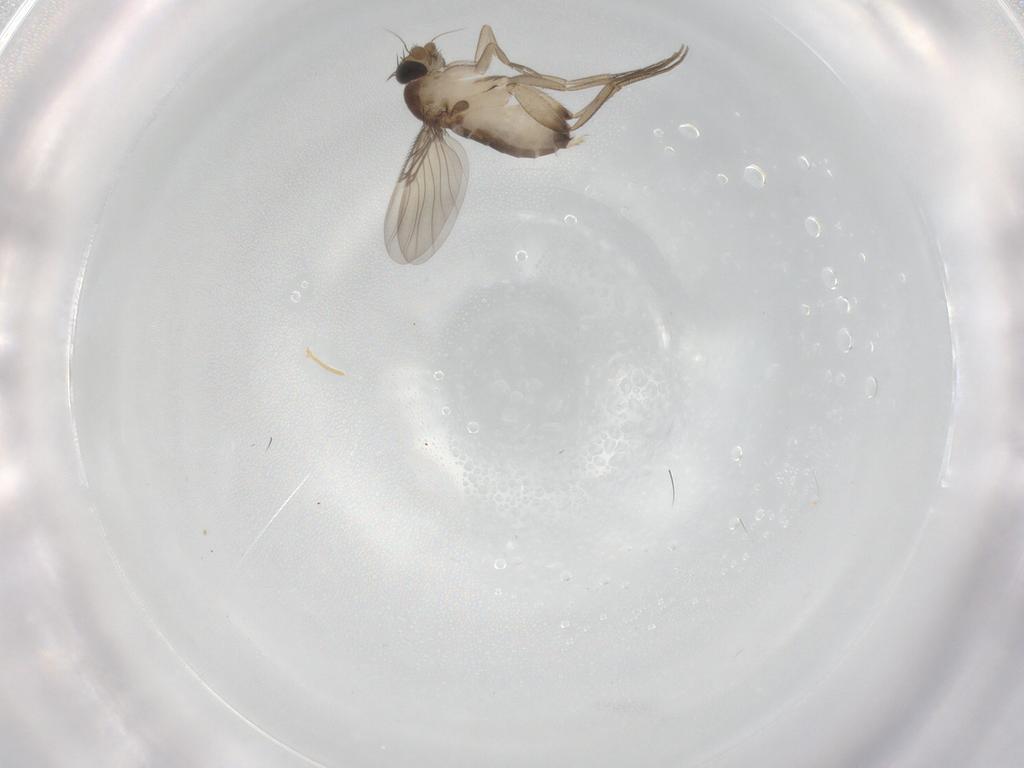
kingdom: Animalia
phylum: Arthropoda
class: Insecta
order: Diptera
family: Phoridae
